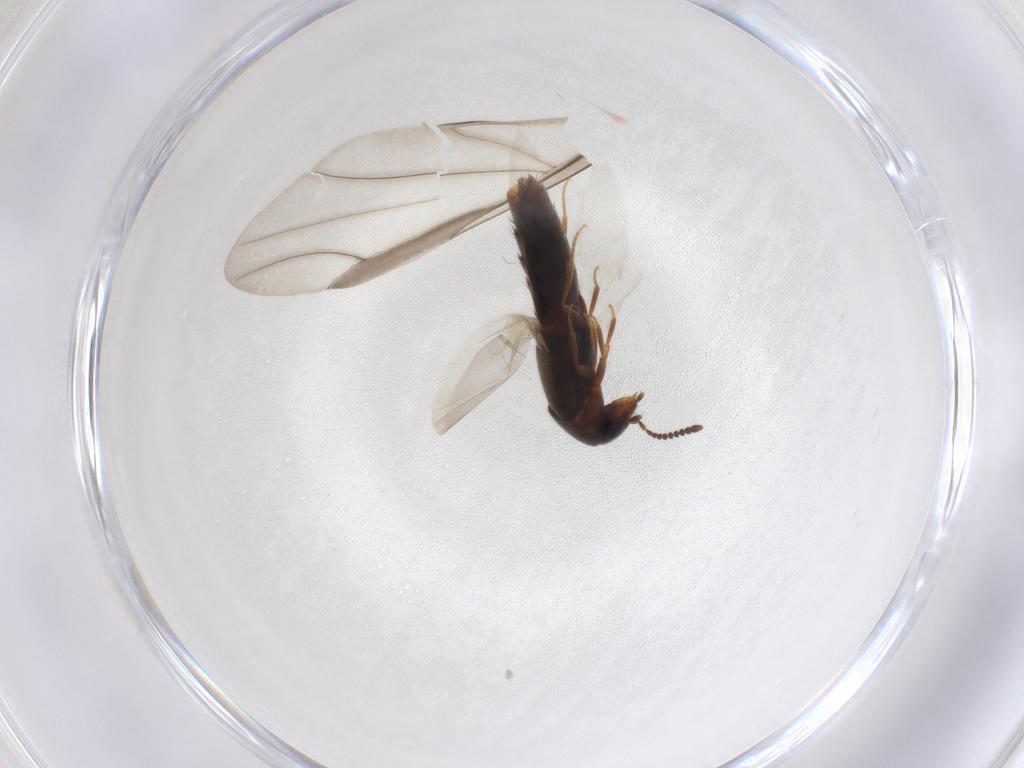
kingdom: Animalia
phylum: Arthropoda
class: Insecta
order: Coleoptera
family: Staphylinidae
